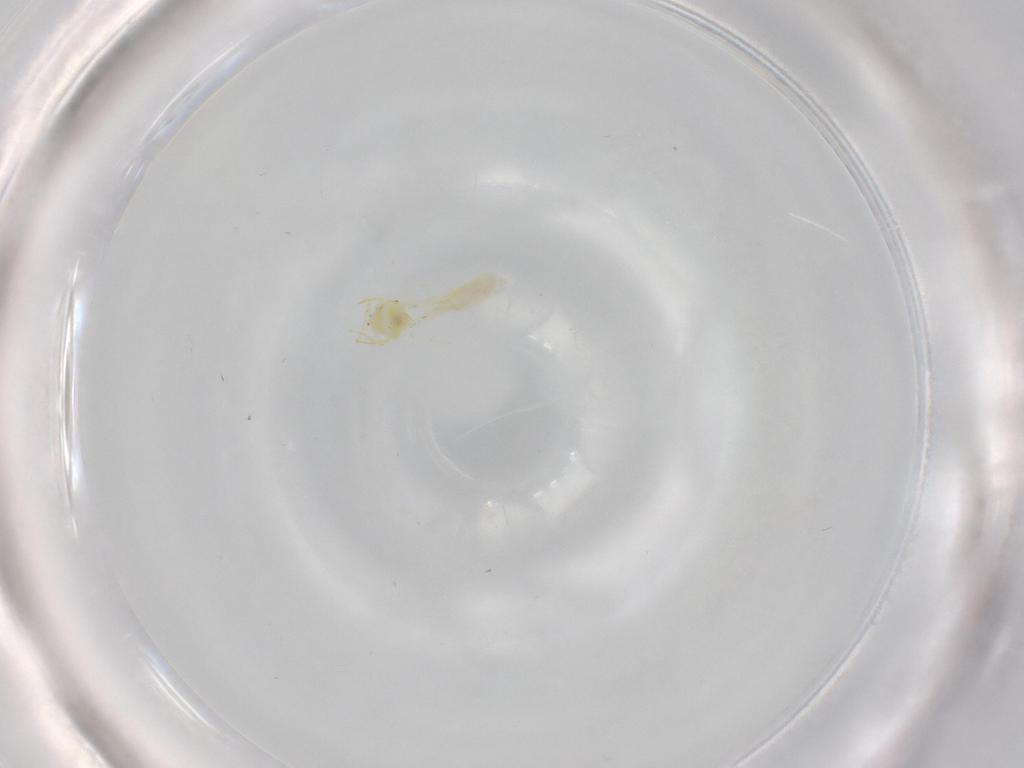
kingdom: Animalia
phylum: Arthropoda
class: Insecta
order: Hemiptera
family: Aleyrodidae
